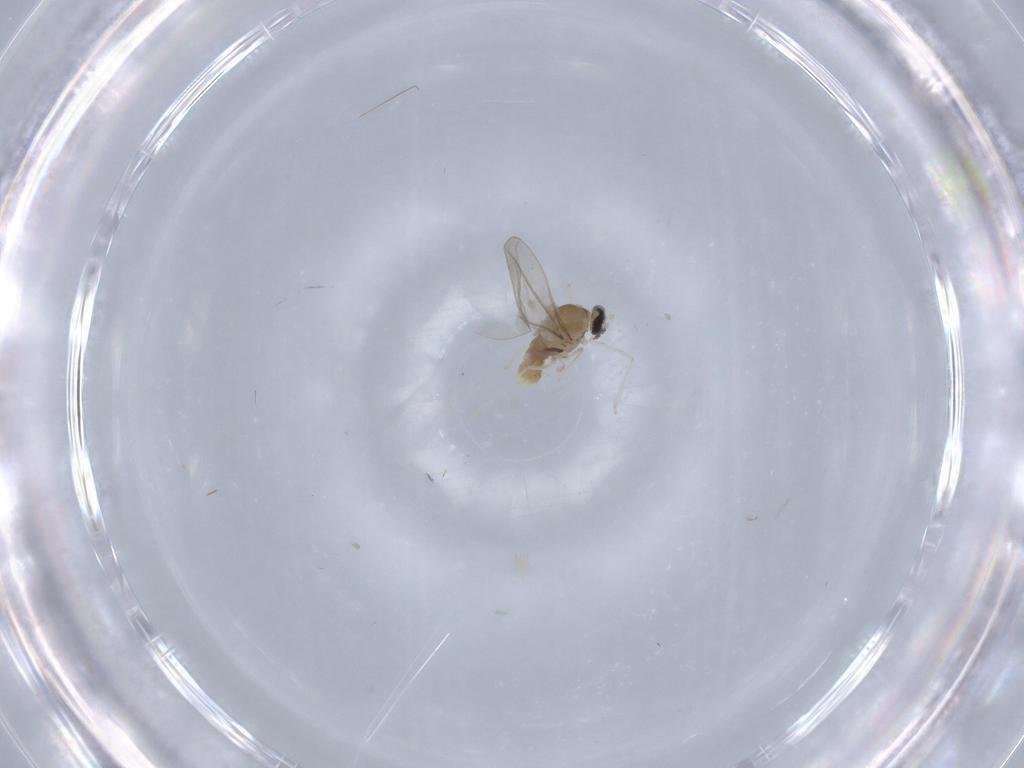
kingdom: Animalia
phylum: Arthropoda
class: Insecta
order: Diptera
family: Cecidomyiidae
